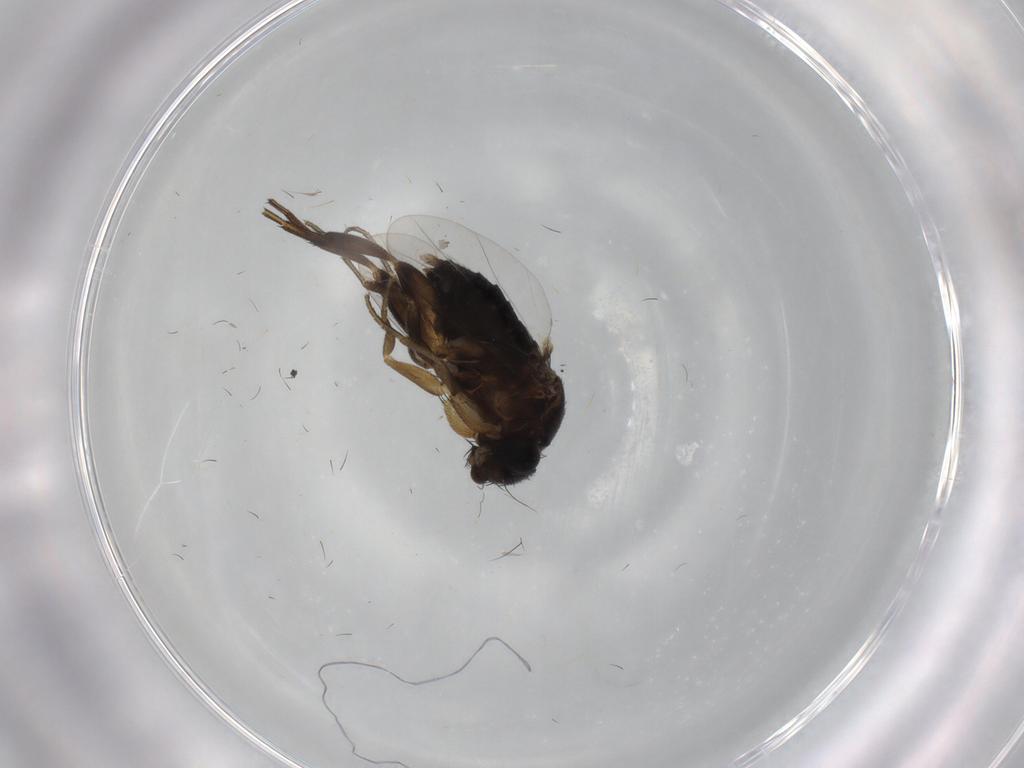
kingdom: Animalia
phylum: Arthropoda
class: Insecta
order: Diptera
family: Phoridae
